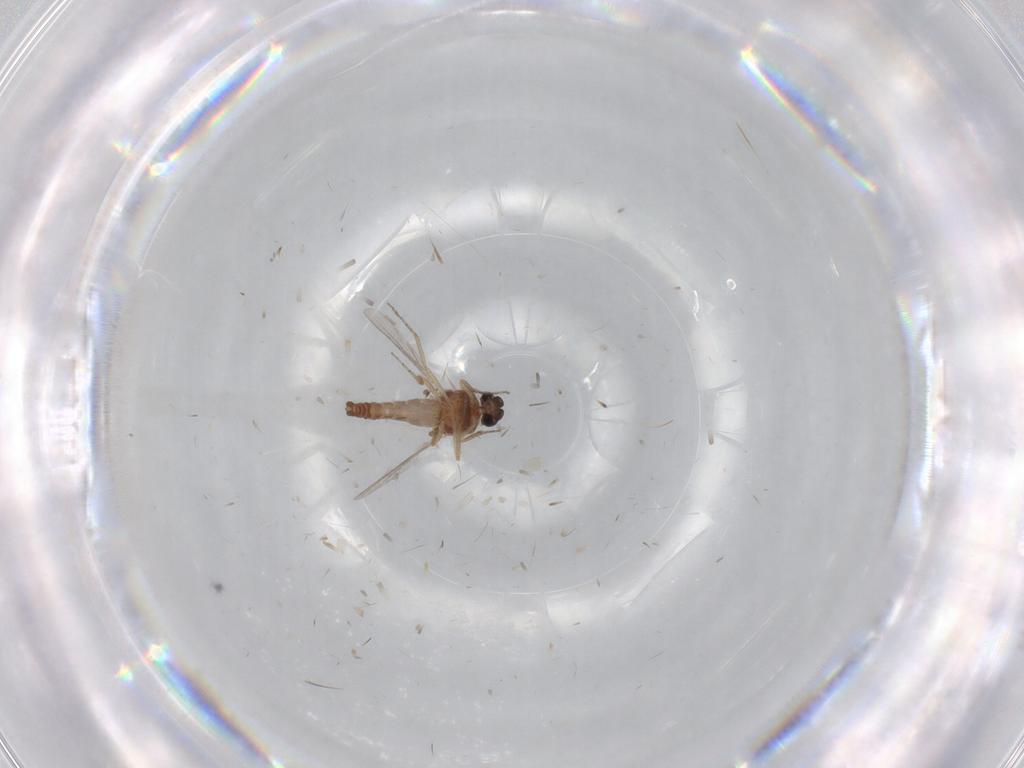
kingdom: Animalia
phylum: Arthropoda
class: Insecta
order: Diptera
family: Ceratopogonidae
